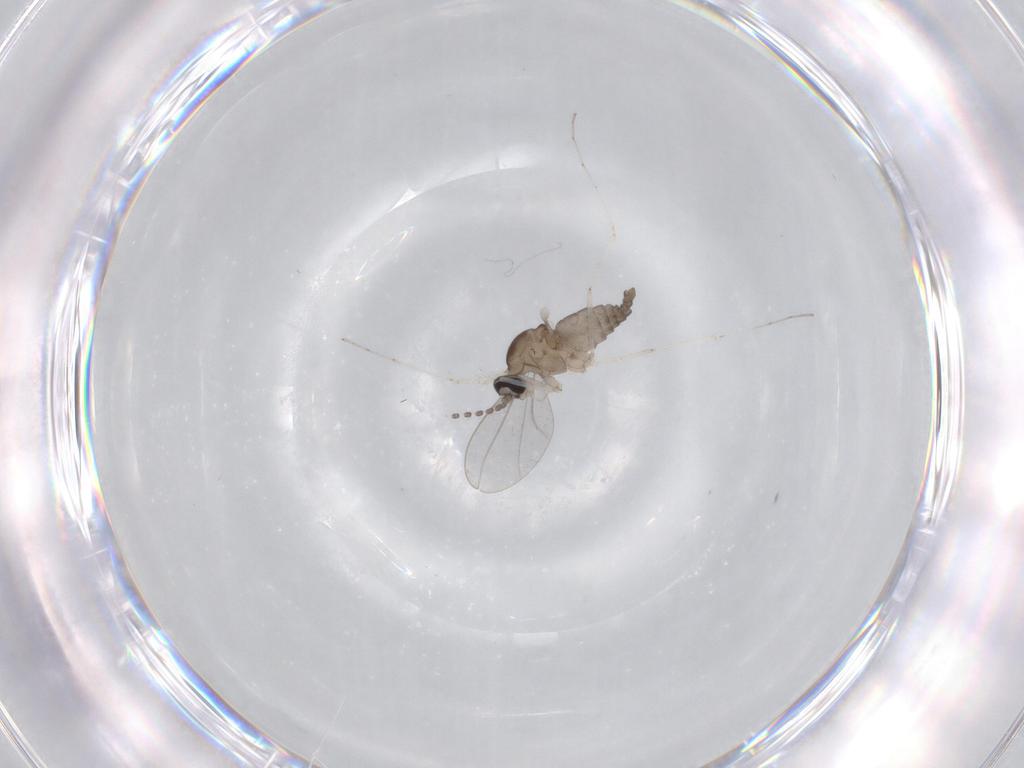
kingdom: Animalia
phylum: Arthropoda
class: Insecta
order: Diptera
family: Cecidomyiidae
